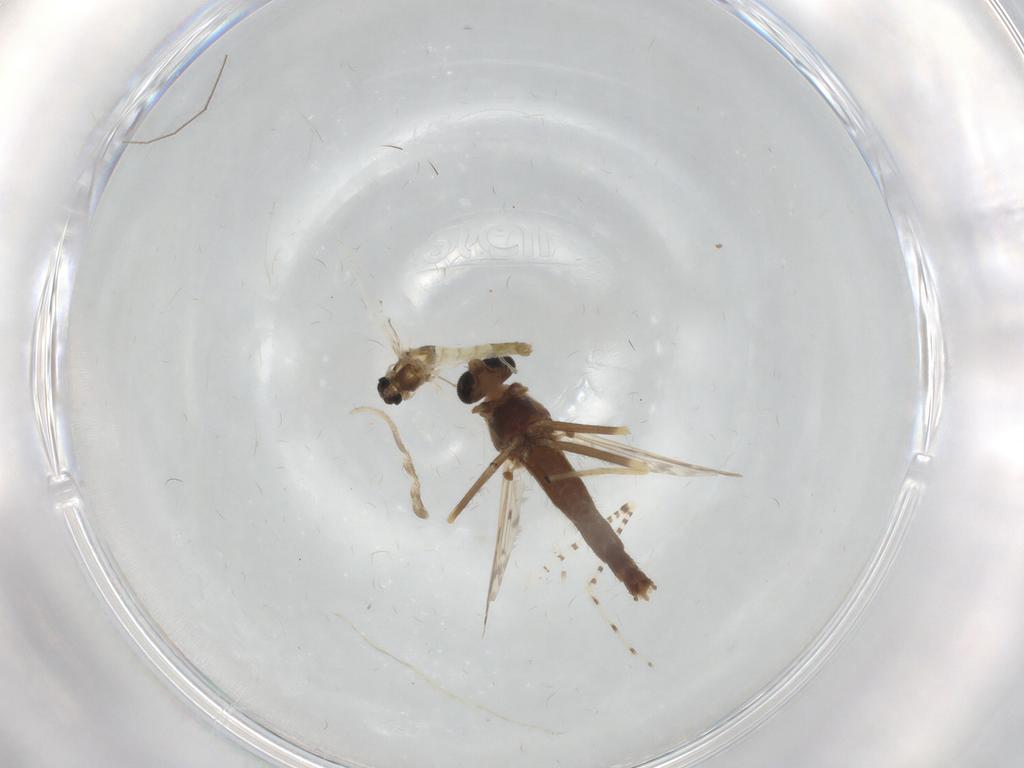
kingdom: Animalia
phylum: Arthropoda
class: Insecta
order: Diptera
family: Chironomidae
